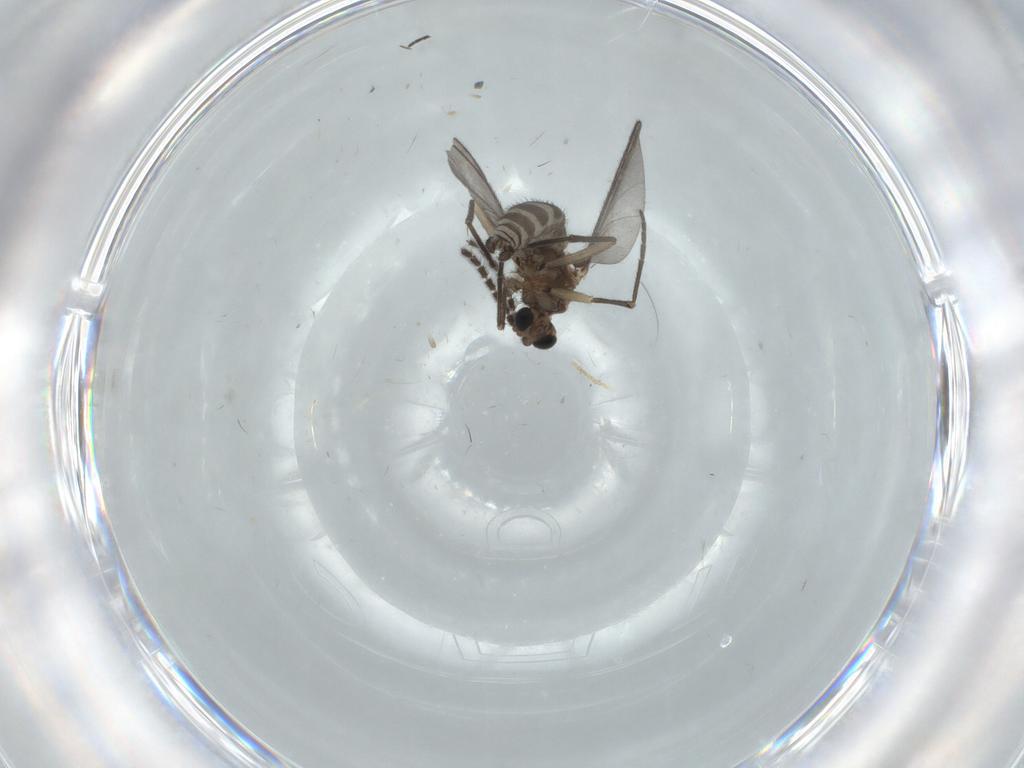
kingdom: Animalia
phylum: Arthropoda
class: Insecta
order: Diptera
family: Sciaridae
